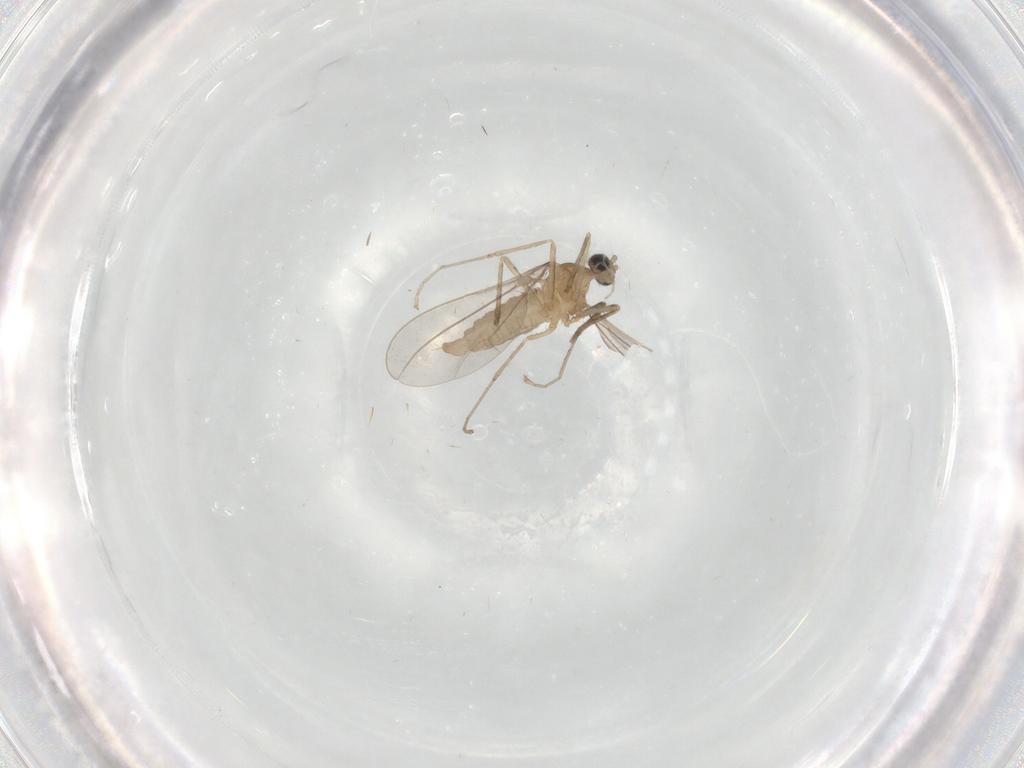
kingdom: Animalia
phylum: Arthropoda
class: Insecta
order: Diptera
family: Cecidomyiidae
